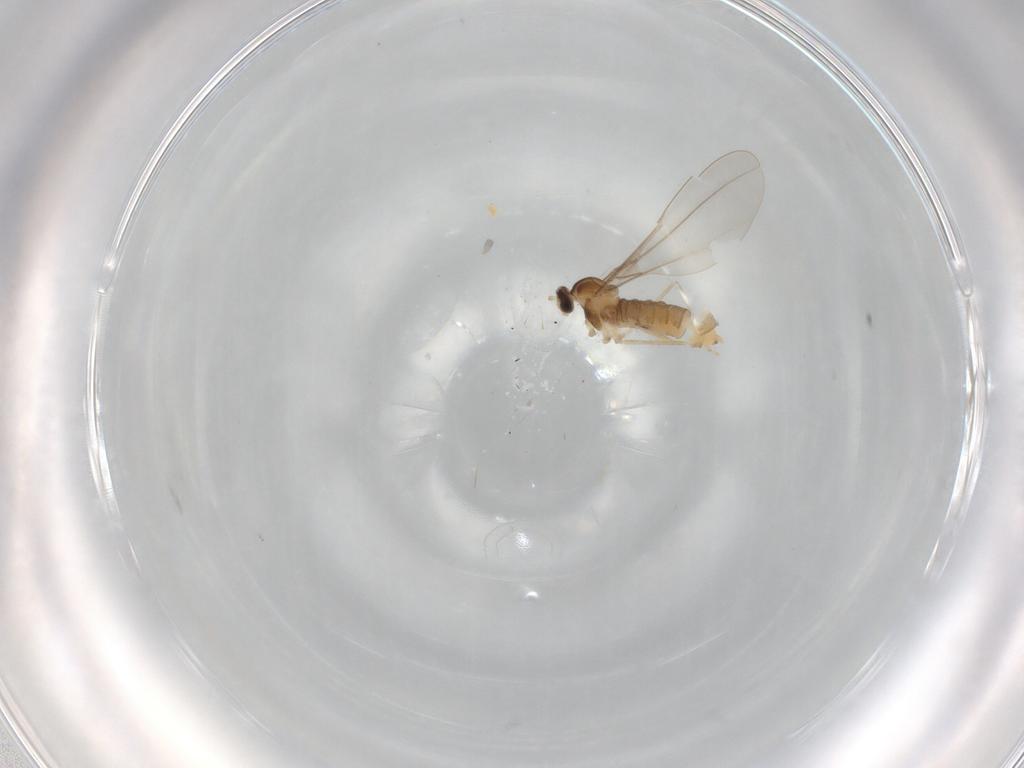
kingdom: Animalia
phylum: Arthropoda
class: Insecta
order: Diptera
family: Cecidomyiidae
